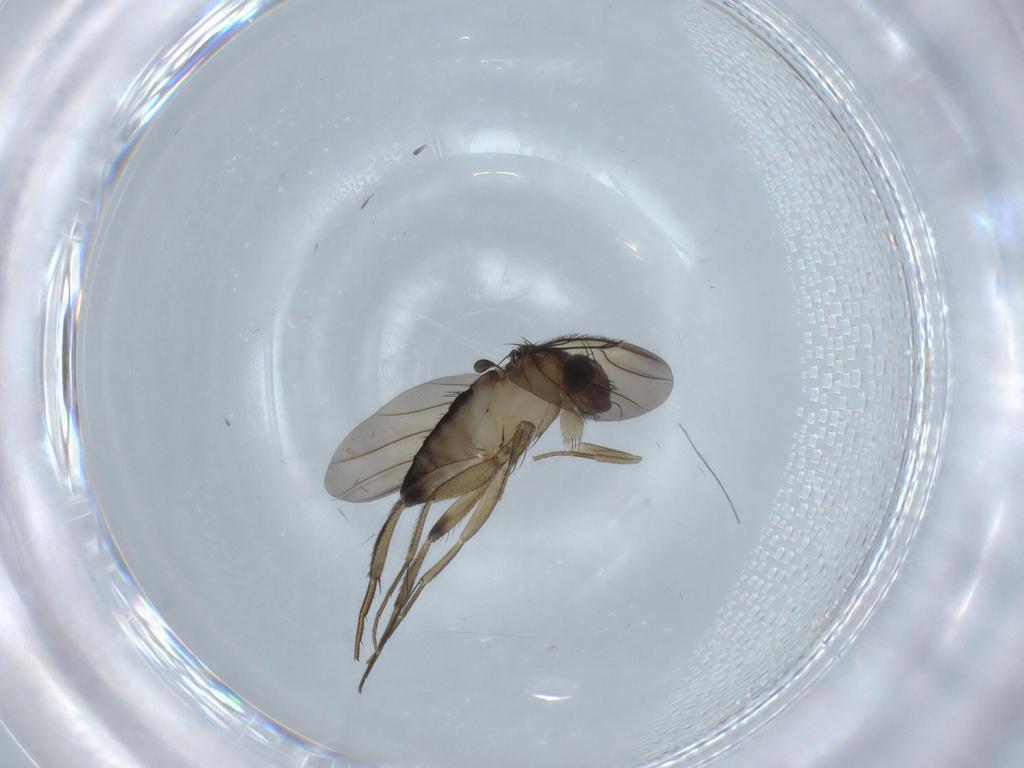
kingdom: Animalia
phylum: Arthropoda
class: Insecta
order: Diptera
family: Phoridae
